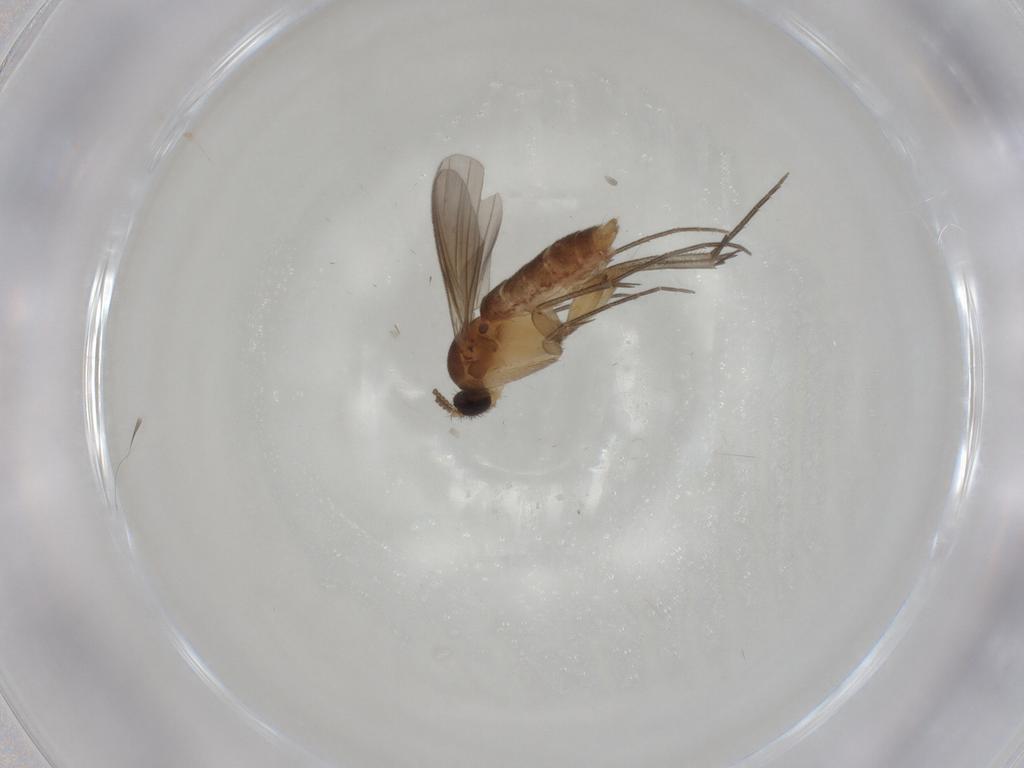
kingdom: Animalia
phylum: Arthropoda
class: Insecta
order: Diptera
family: Mycetophilidae
